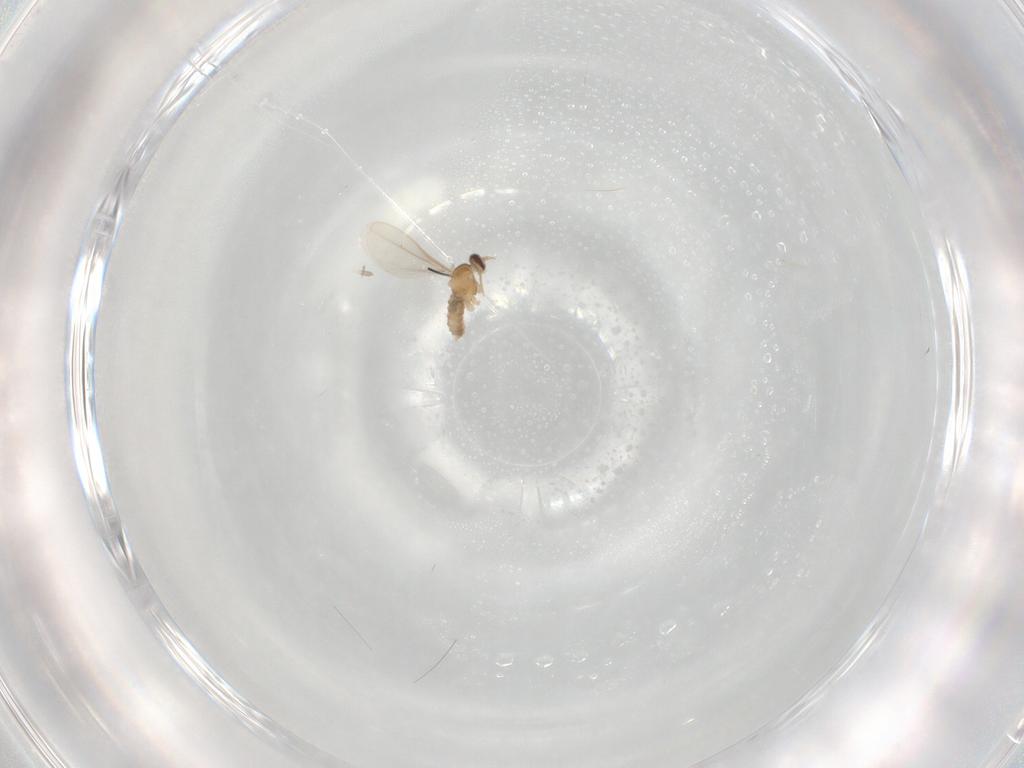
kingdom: Animalia
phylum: Arthropoda
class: Insecta
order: Diptera
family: Cecidomyiidae
